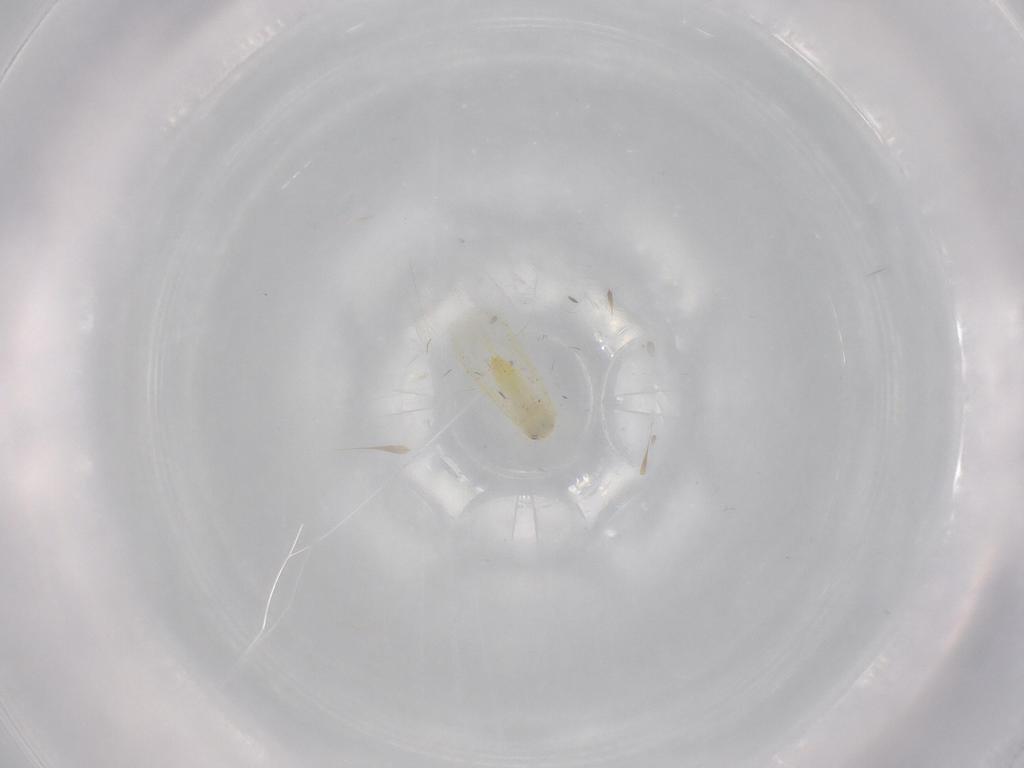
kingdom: Animalia
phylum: Arthropoda
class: Insecta
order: Hemiptera
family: Aleyrodidae
